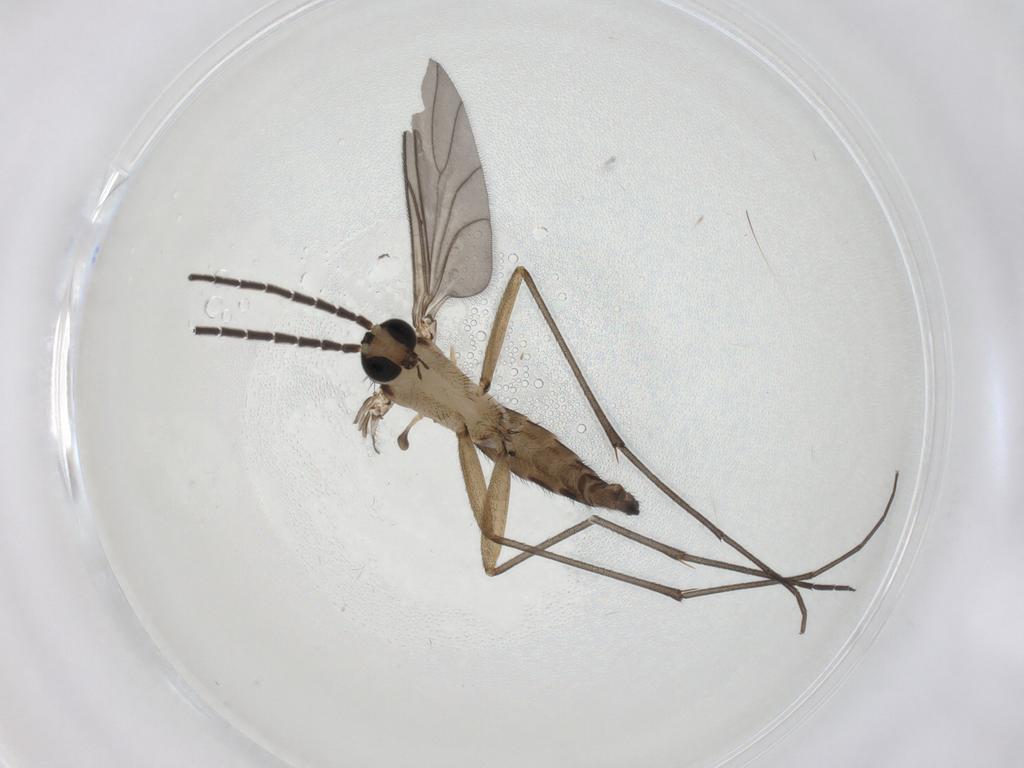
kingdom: Animalia
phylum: Arthropoda
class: Insecta
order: Diptera
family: Sciaridae
